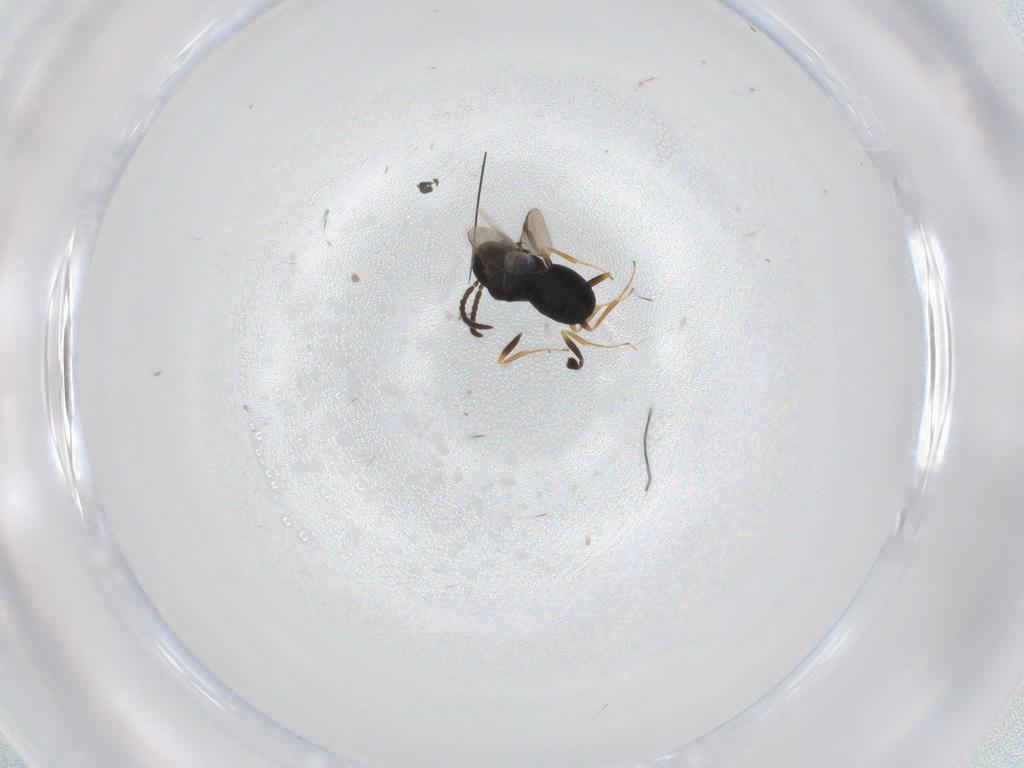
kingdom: Animalia
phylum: Arthropoda
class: Insecta
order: Hymenoptera
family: Scelionidae
